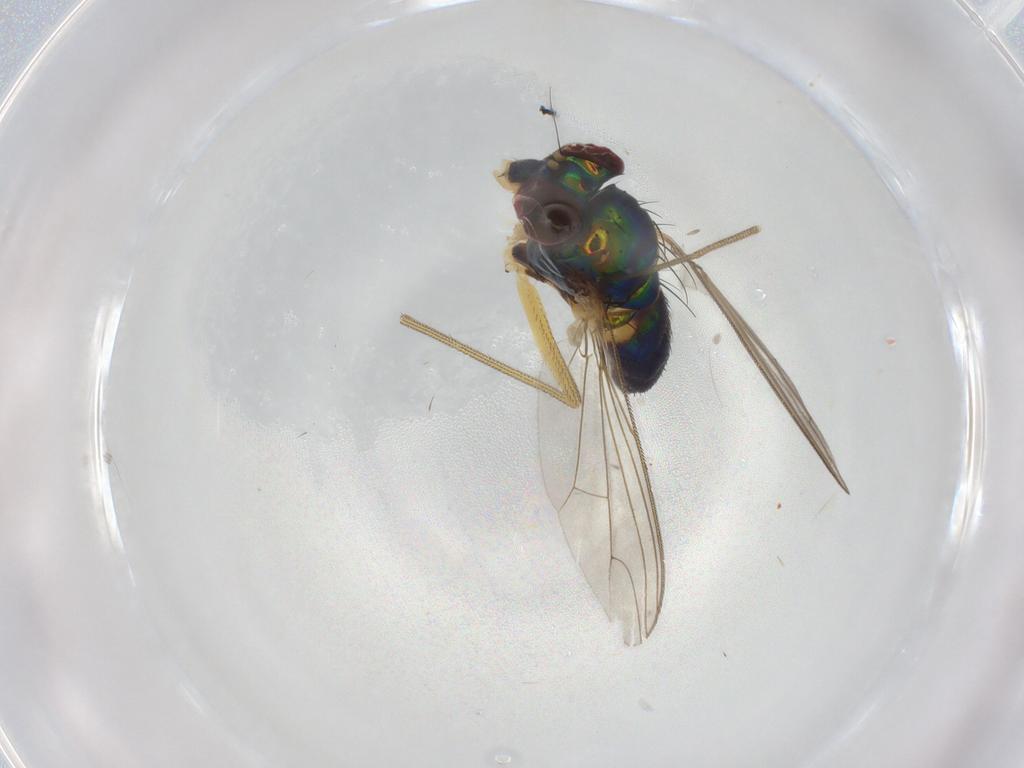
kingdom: Animalia
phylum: Arthropoda
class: Insecta
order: Diptera
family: Dolichopodidae
